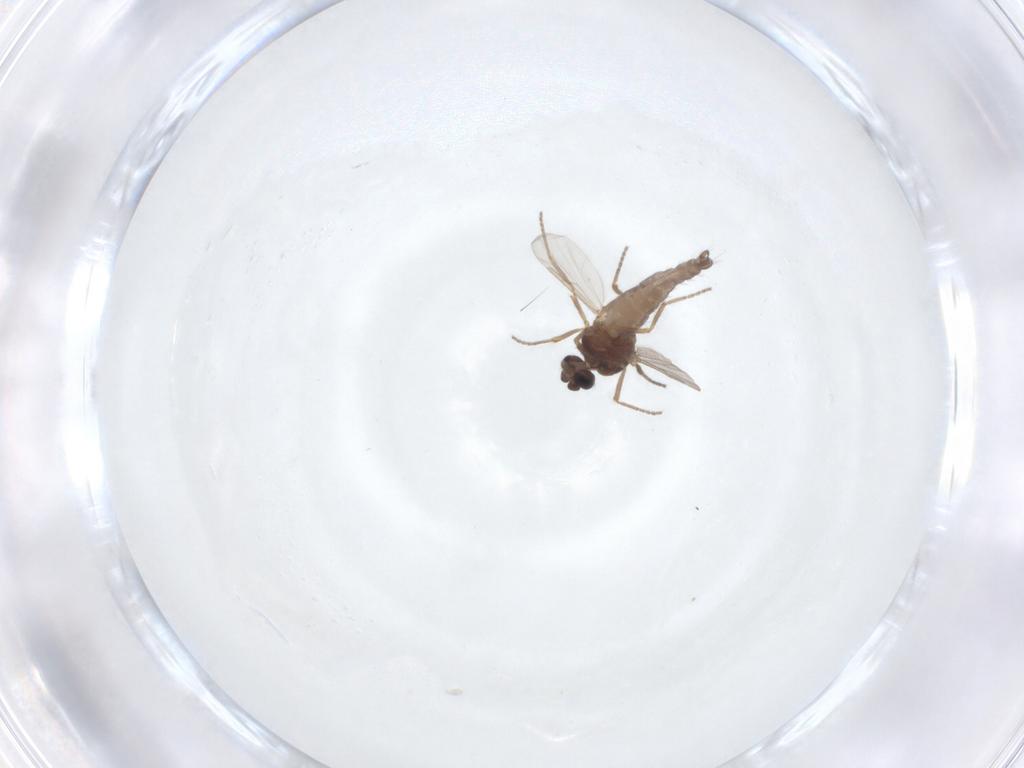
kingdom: Animalia
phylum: Arthropoda
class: Insecta
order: Diptera
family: Ceratopogonidae
